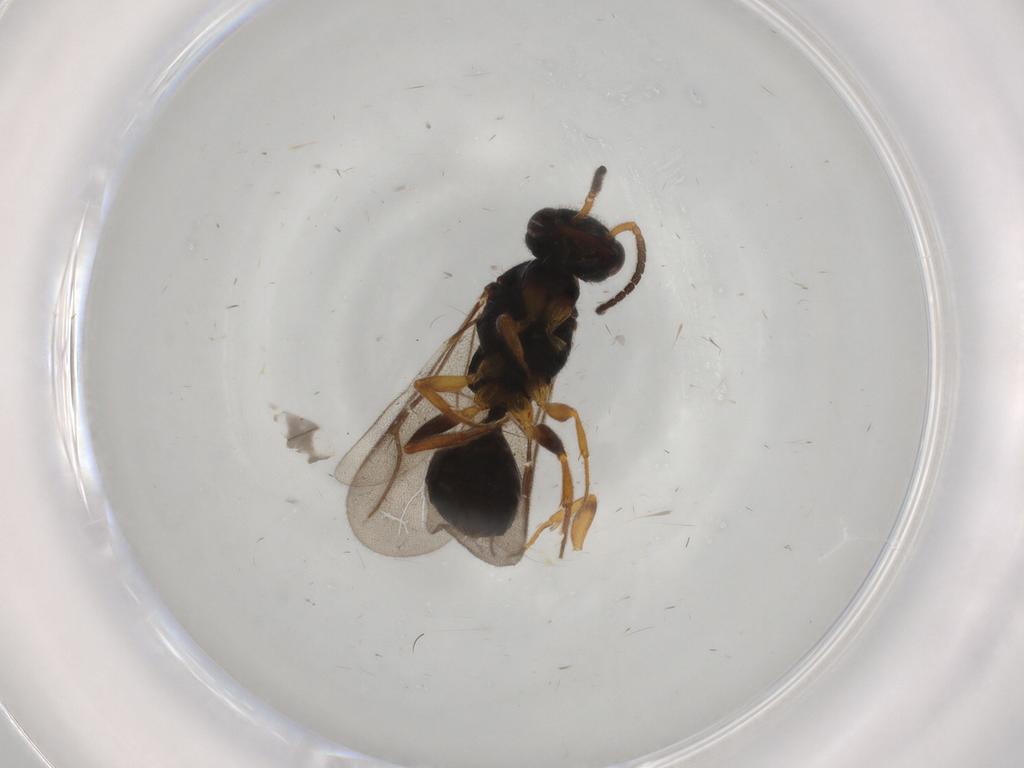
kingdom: Animalia
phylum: Arthropoda
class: Insecta
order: Hymenoptera
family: Bethylidae
